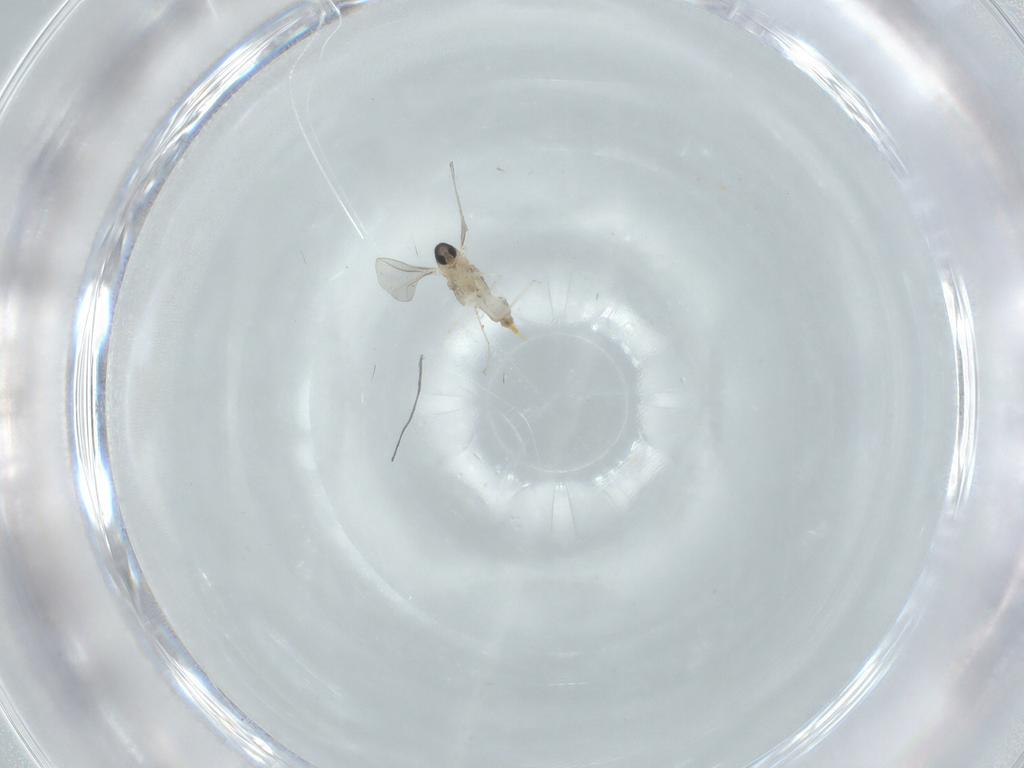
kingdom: Animalia
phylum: Arthropoda
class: Insecta
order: Diptera
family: Cecidomyiidae
